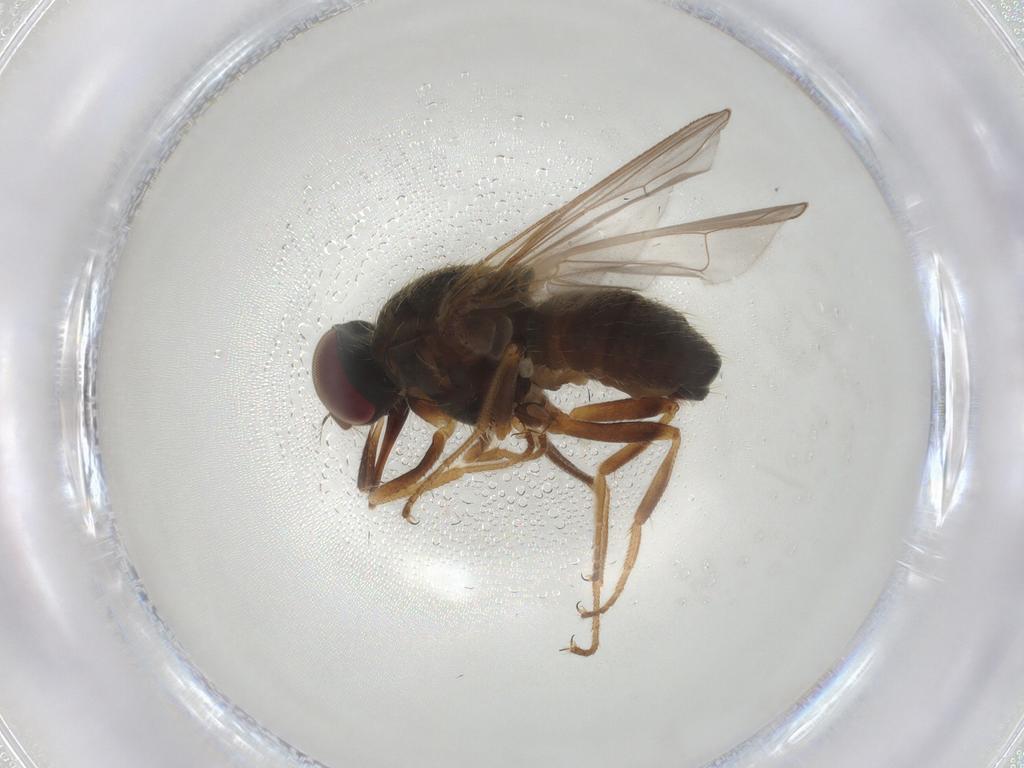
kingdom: Animalia
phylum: Arthropoda
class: Insecta
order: Diptera
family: Muscidae
